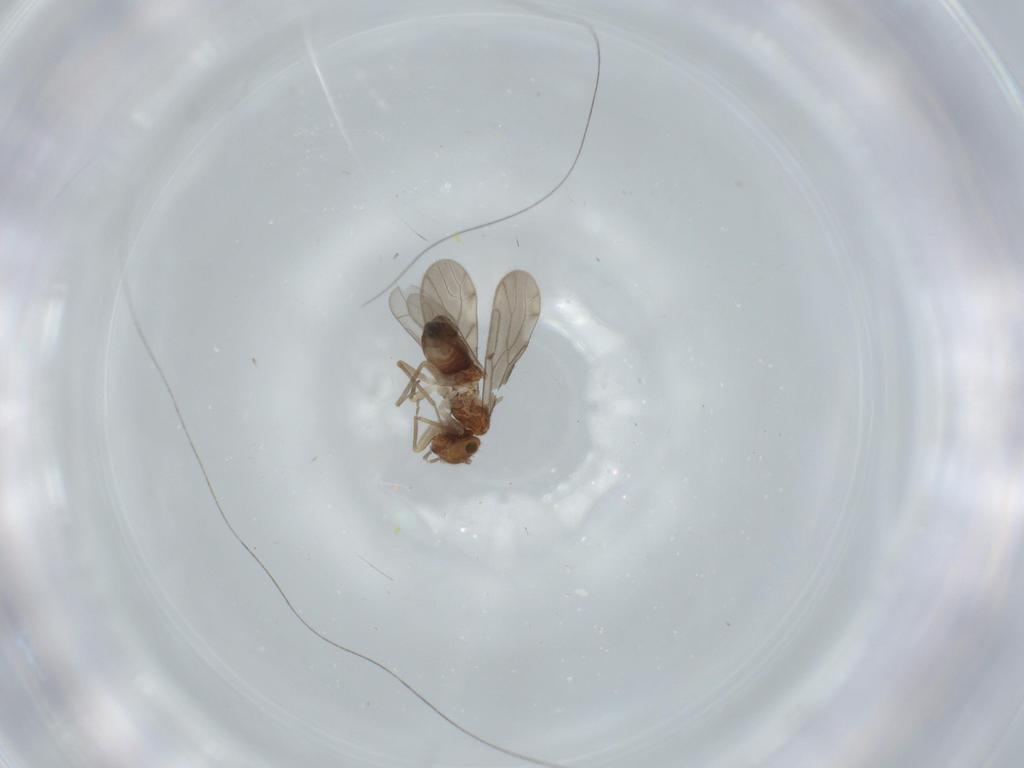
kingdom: Animalia
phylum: Arthropoda
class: Insecta
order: Psocodea
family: Ectopsocidae
